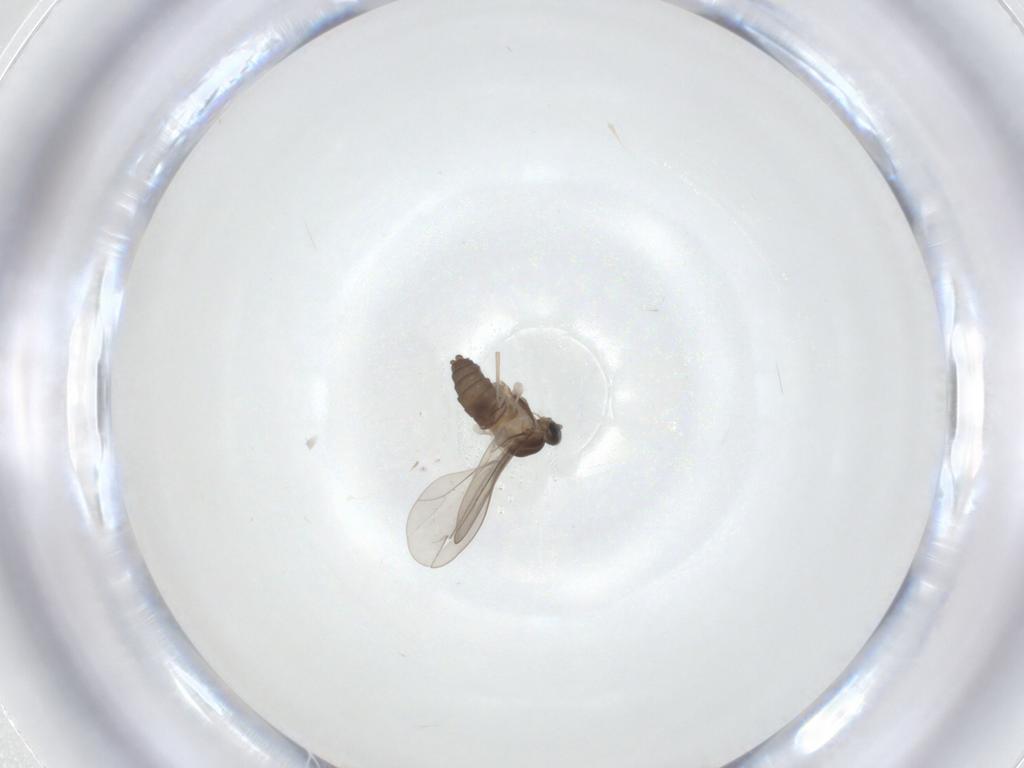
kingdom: Animalia
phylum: Arthropoda
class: Insecta
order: Diptera
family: Cecidomyiidae
